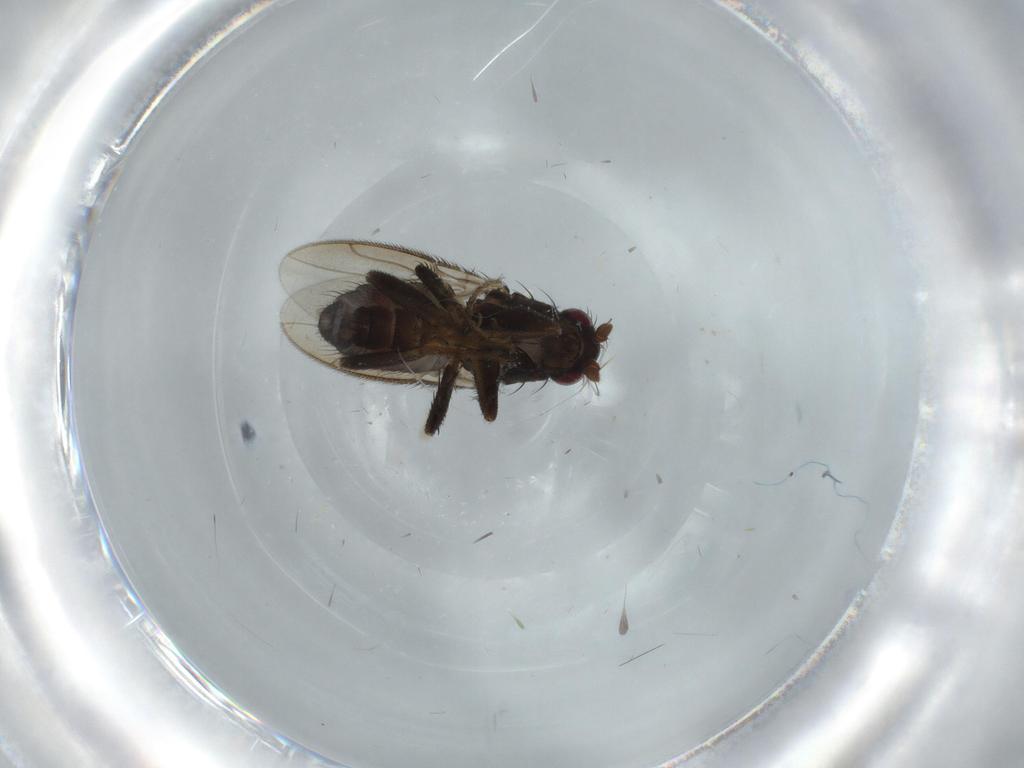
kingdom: Animalia
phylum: Arthropoda
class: Insecta
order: Diptera
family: Sphaeroceridae
